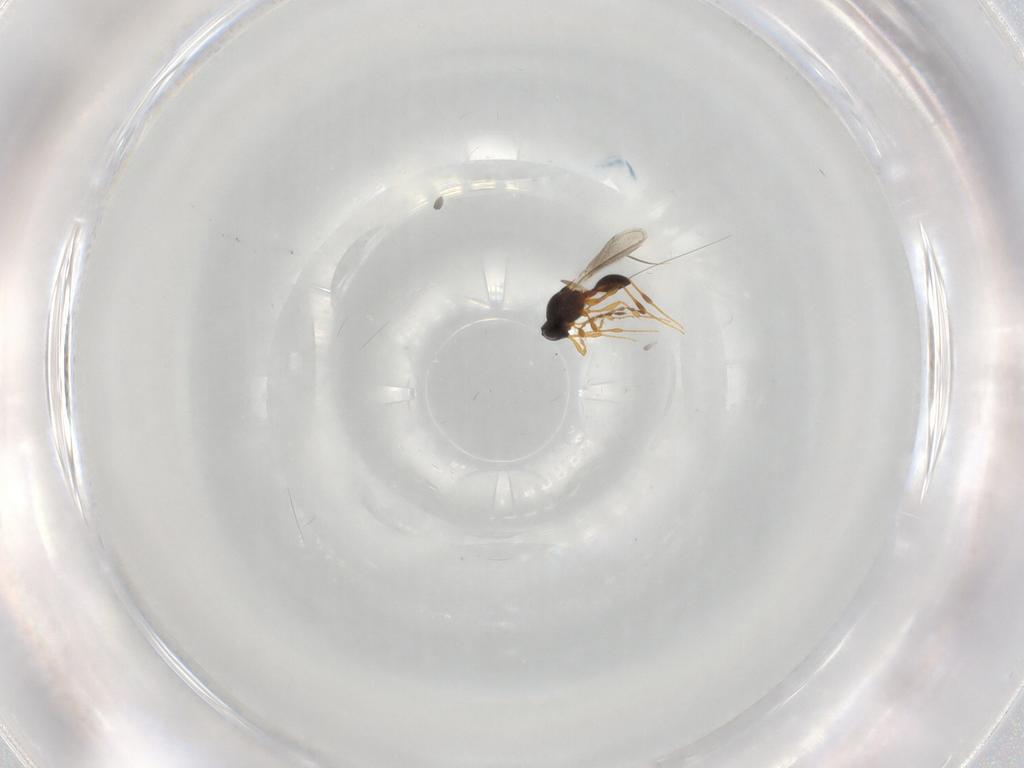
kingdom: Animalia
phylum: Arthropoda
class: Insecta
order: Hymenoptera
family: Platygastridae
